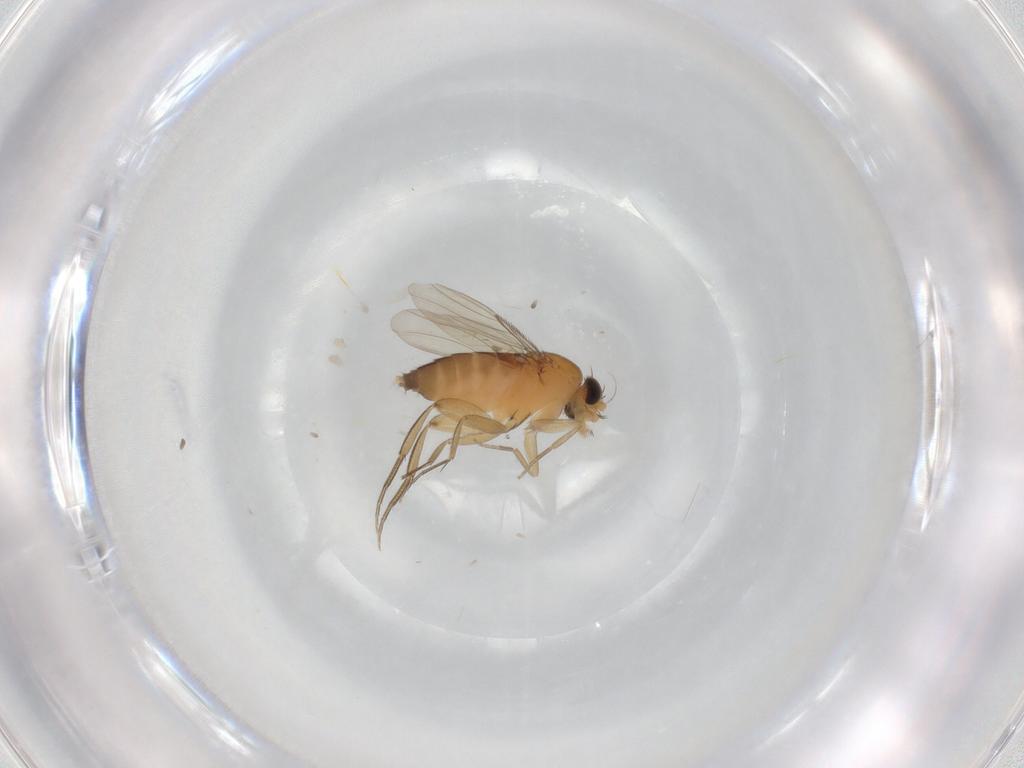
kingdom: Animalia
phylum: Arthropoda
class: Insecta
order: Diptera
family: Phoridae
